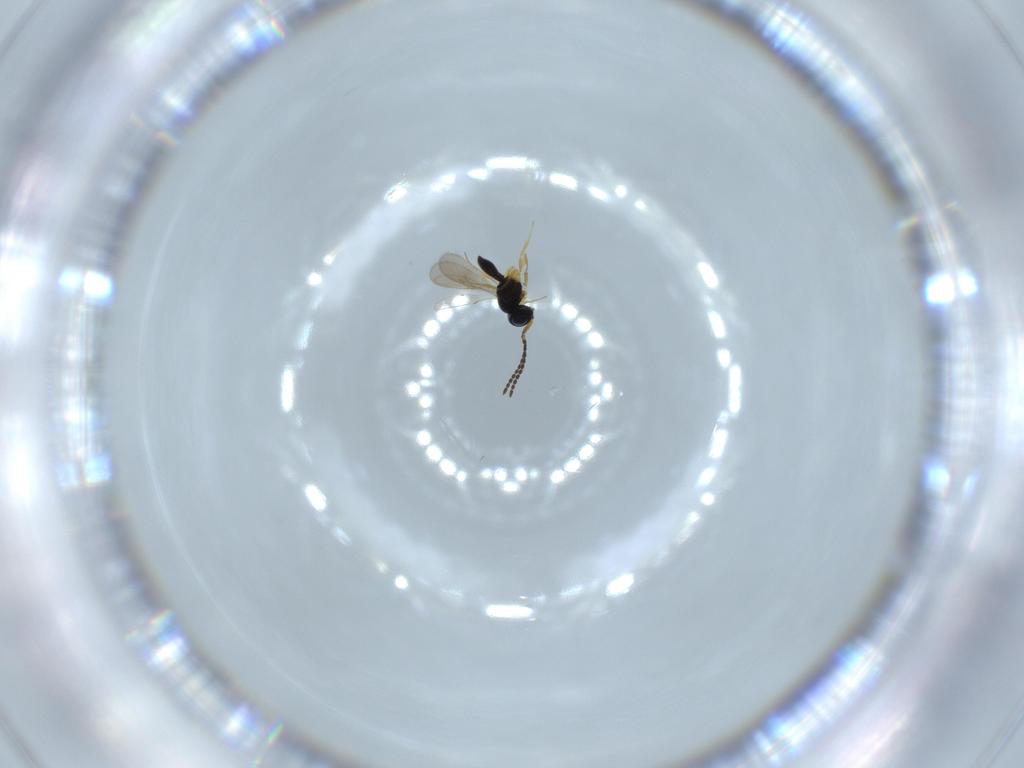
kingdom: Animalia
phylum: Arthropoda
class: Insecta
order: Hymenoptera
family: Scelionidae
